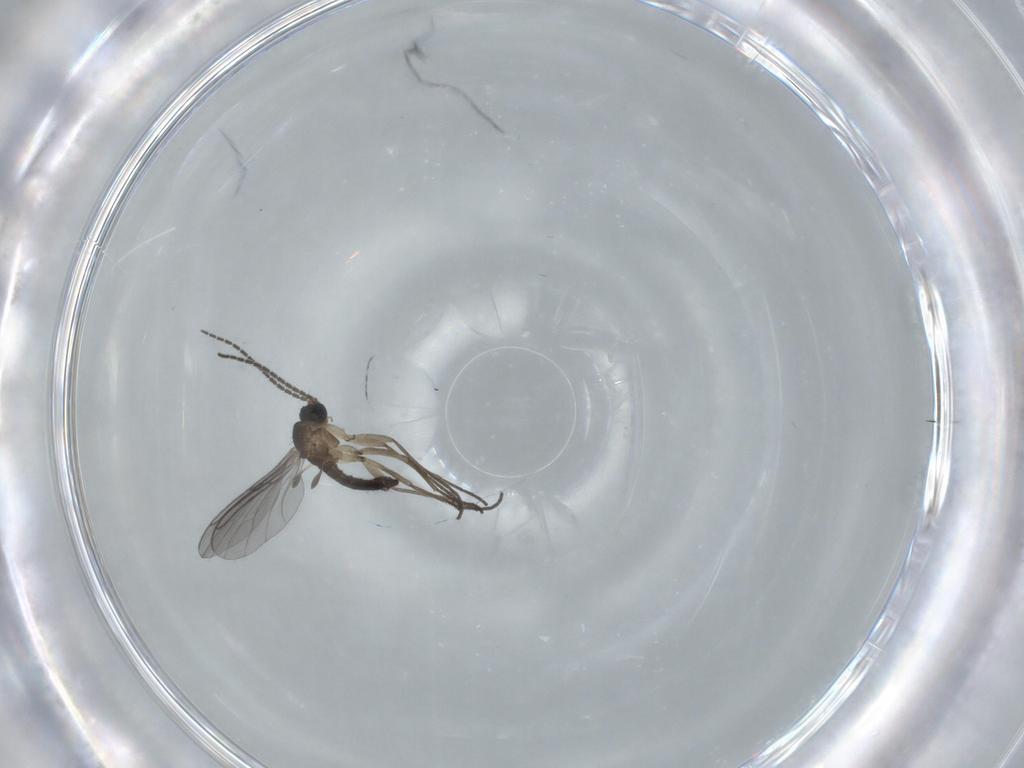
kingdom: Animalia
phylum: Arthropoda
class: Insecta
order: Diptera
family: Sciaridae
